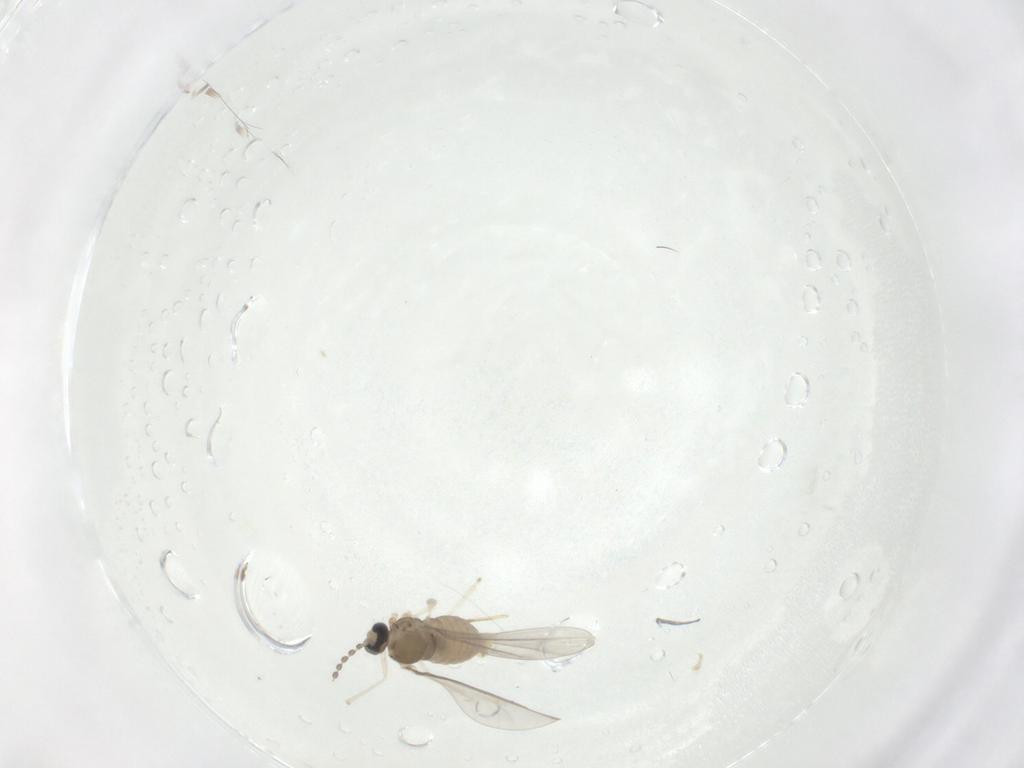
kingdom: Animalia
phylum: Arthropoda
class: Insecta
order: Diptera
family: Cecidomyiidae
